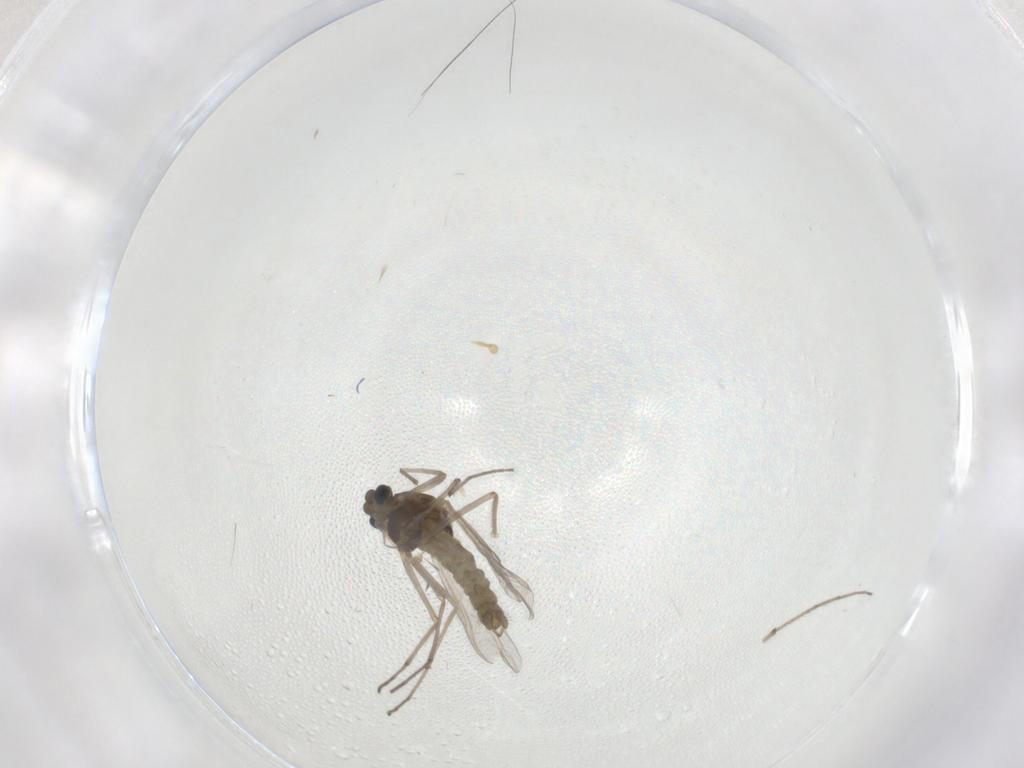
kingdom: Animalia
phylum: Arthropoda
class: Insecta
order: Diptera
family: Chironomidae
